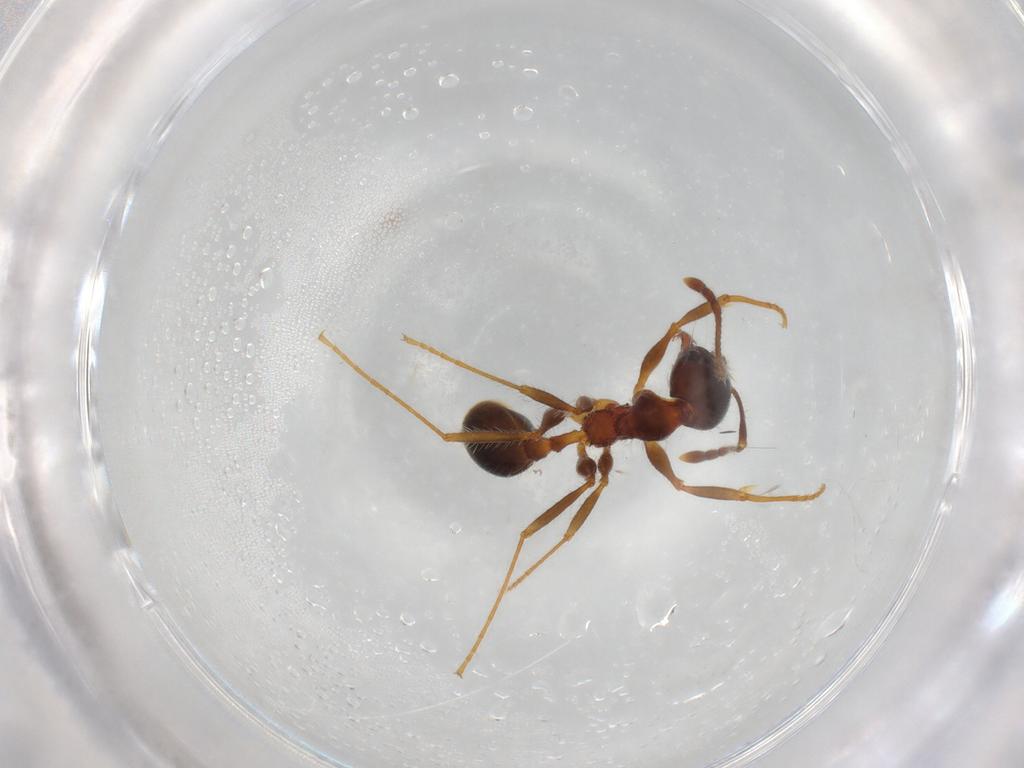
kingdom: Animalia
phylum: Arthropoda
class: Insecta
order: Hymenoptera
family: Formicidae
